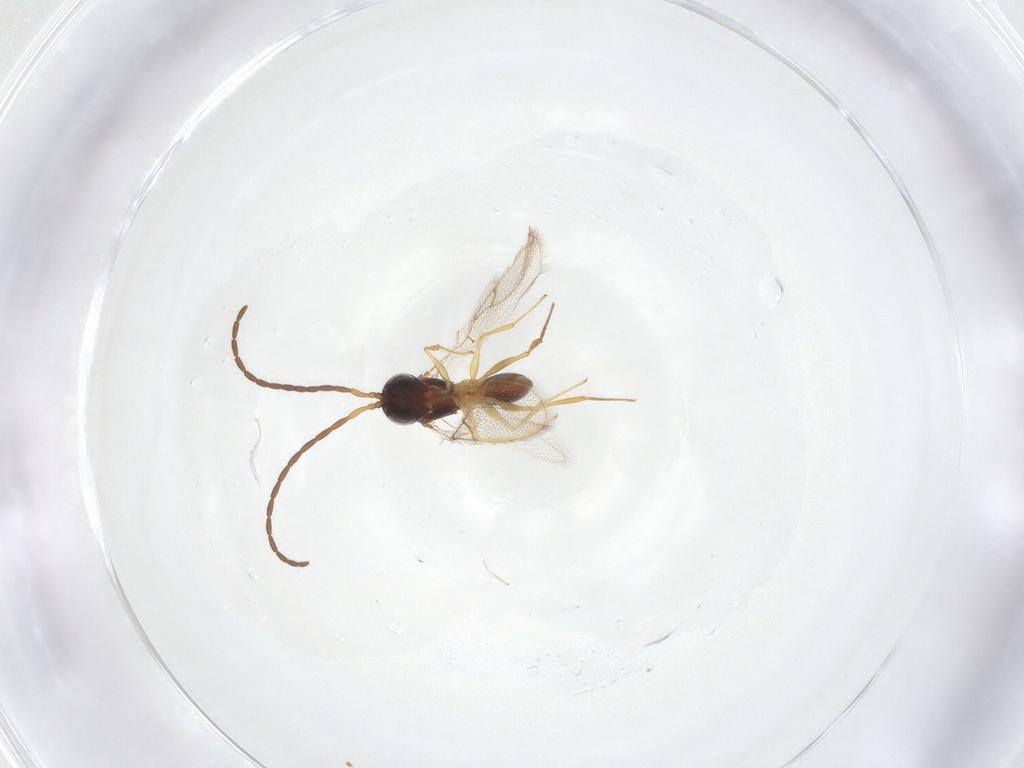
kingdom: Animalia
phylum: Arthropoda
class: Insecta
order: Hymenoptera
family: Figitidae
